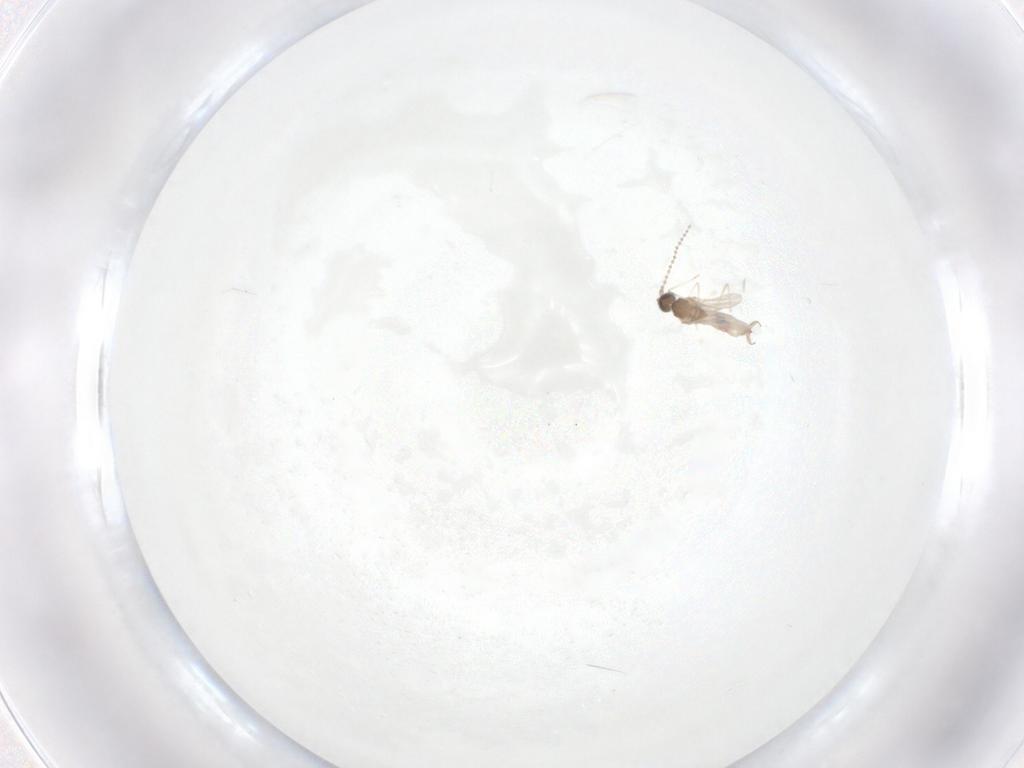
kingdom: Animalia
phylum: Arthropoda
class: Insecta
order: Diptera
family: Cecidomyiidae
